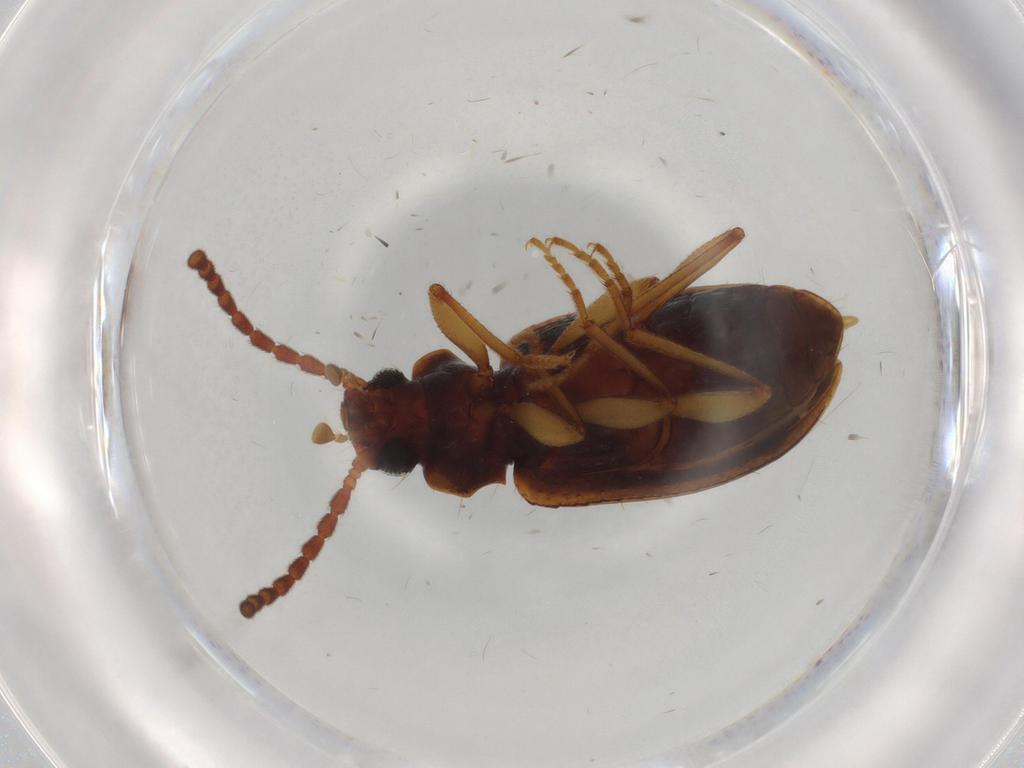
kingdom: Animalia
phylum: Arthropoda
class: Insecta
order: Coleoptera
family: Tenebrionidae
